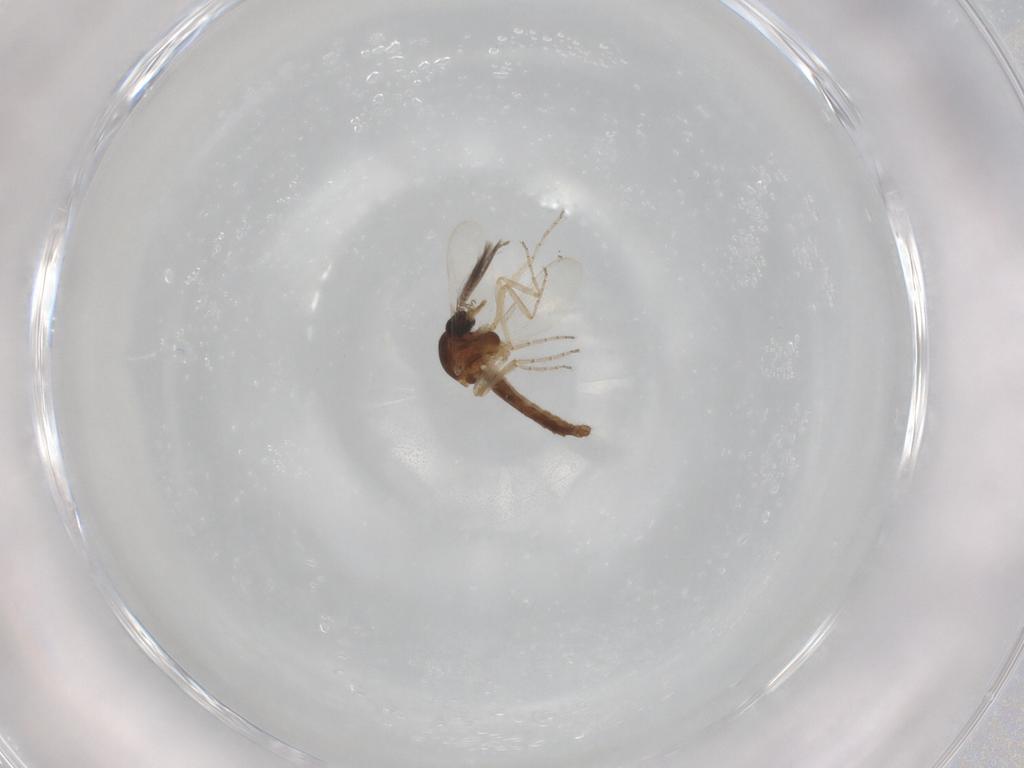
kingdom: Animalia
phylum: Arthropoda
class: Insecta
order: Diptera
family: Ceratopogonidae
